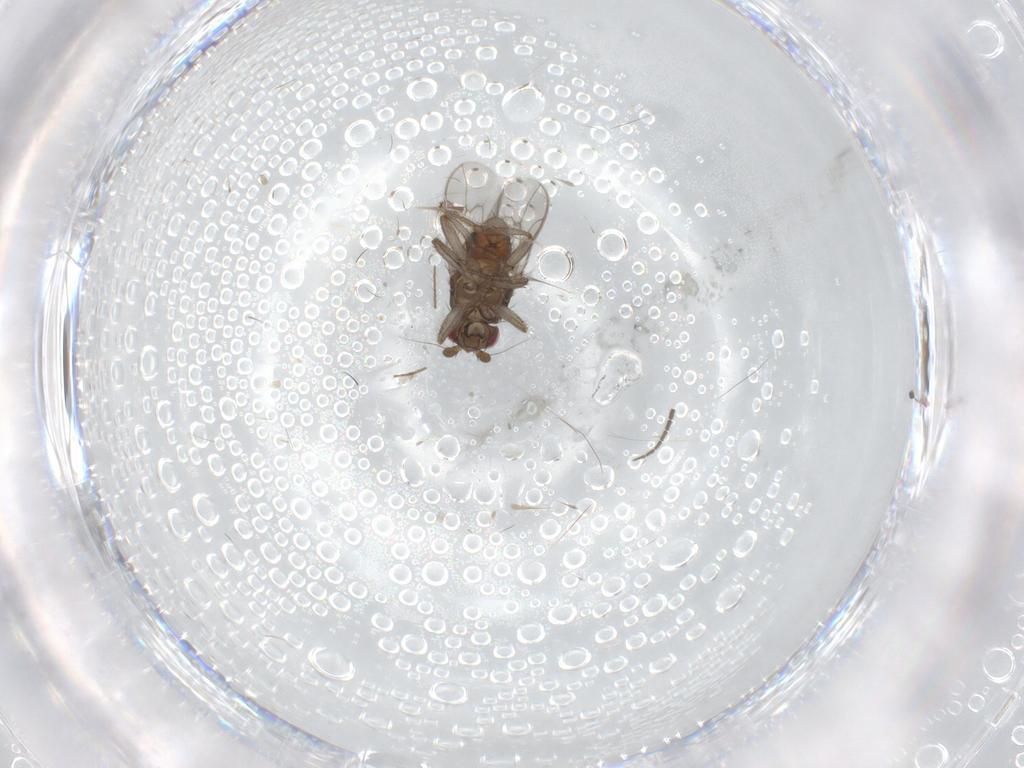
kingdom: Animalia
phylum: Arthropoda
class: Insecta
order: Diptera
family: Sciaridae
